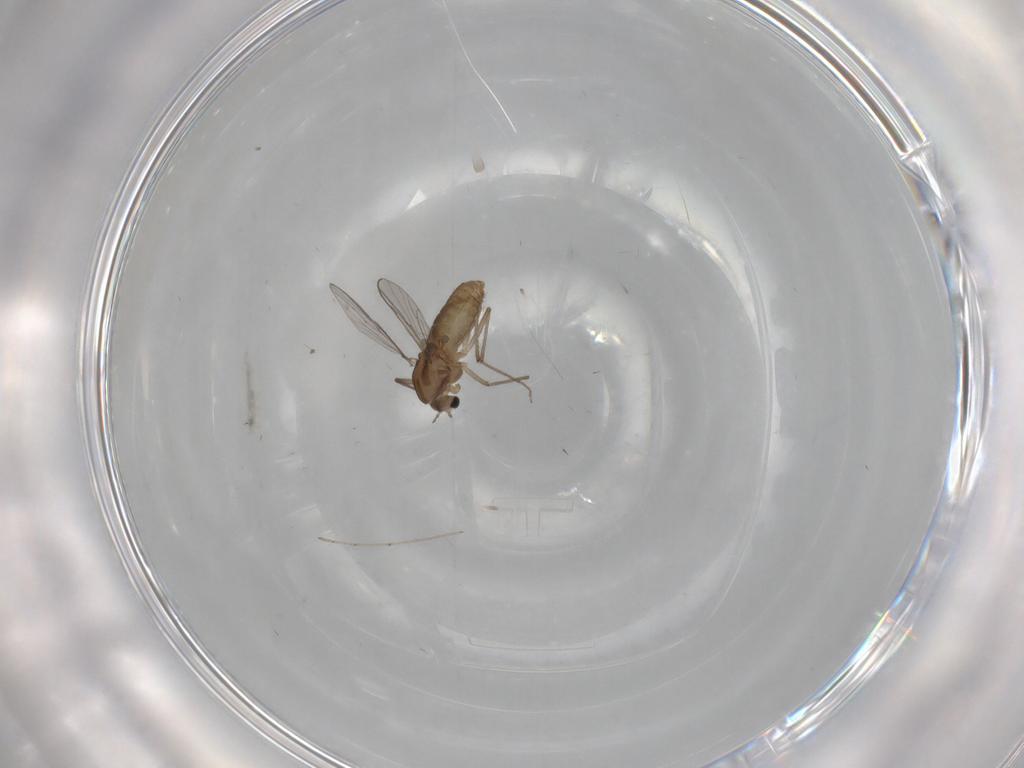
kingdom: Animalia
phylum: Arthropoda
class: Insecta
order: Diptera
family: Chironomidae
